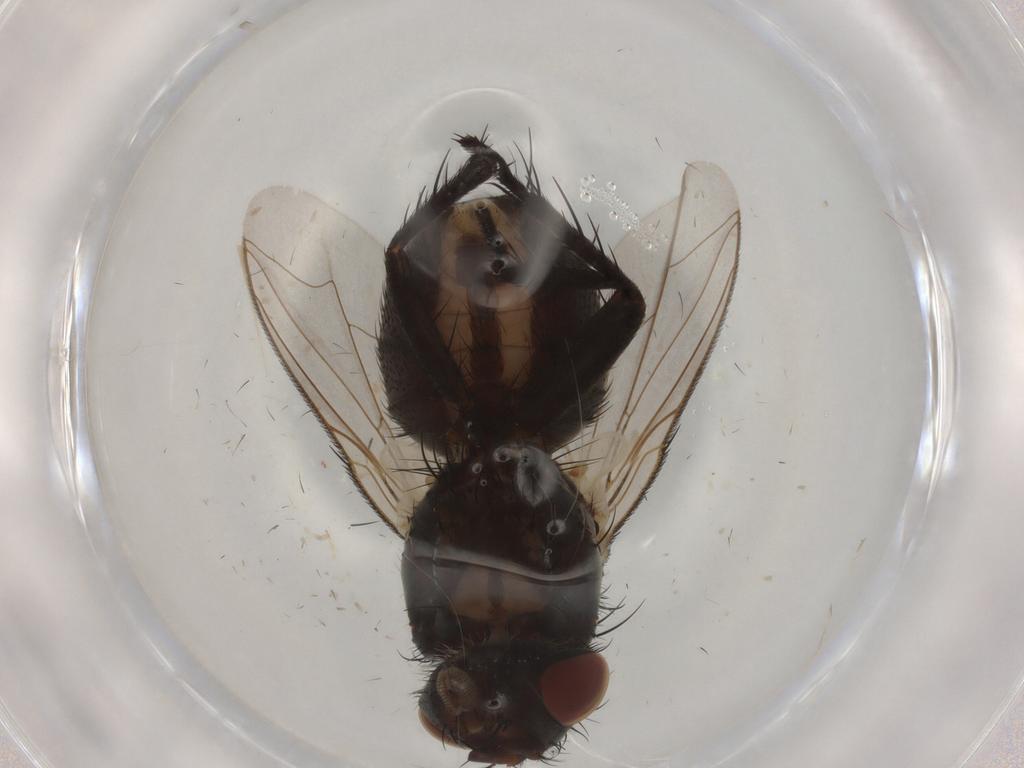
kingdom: Animalia
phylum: Arthropoda
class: Insecta
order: Diptera
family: Sarcophagidae
